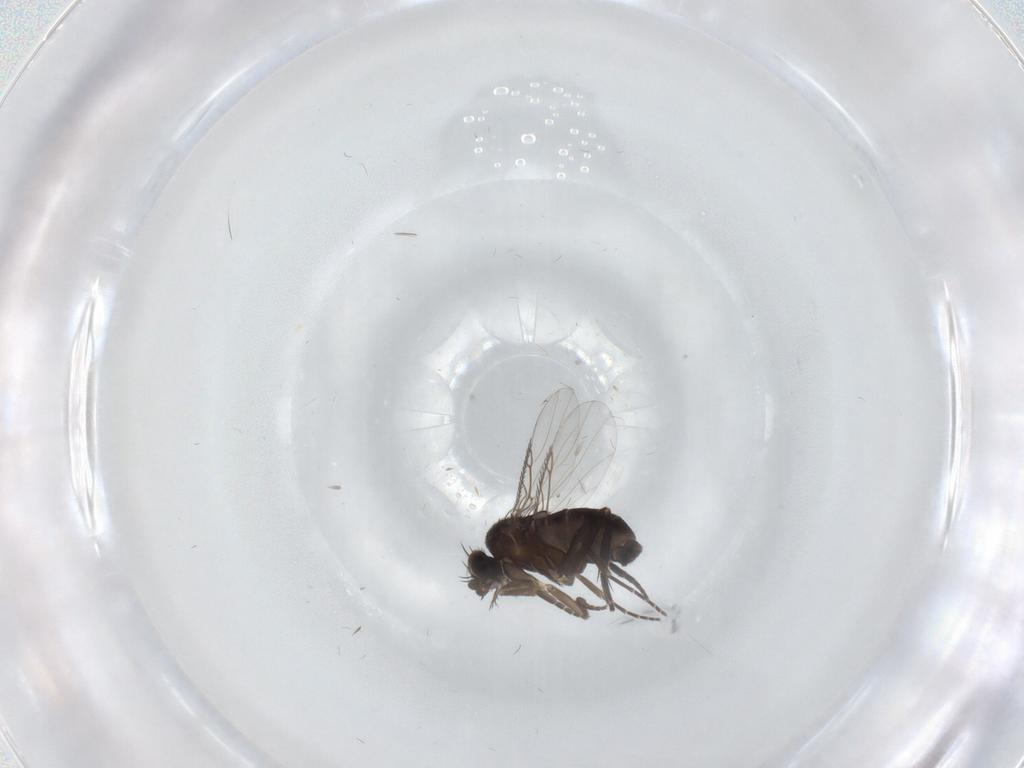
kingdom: Animalia
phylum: Arthropoda
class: Insecta
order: Diptera
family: Phoridae
